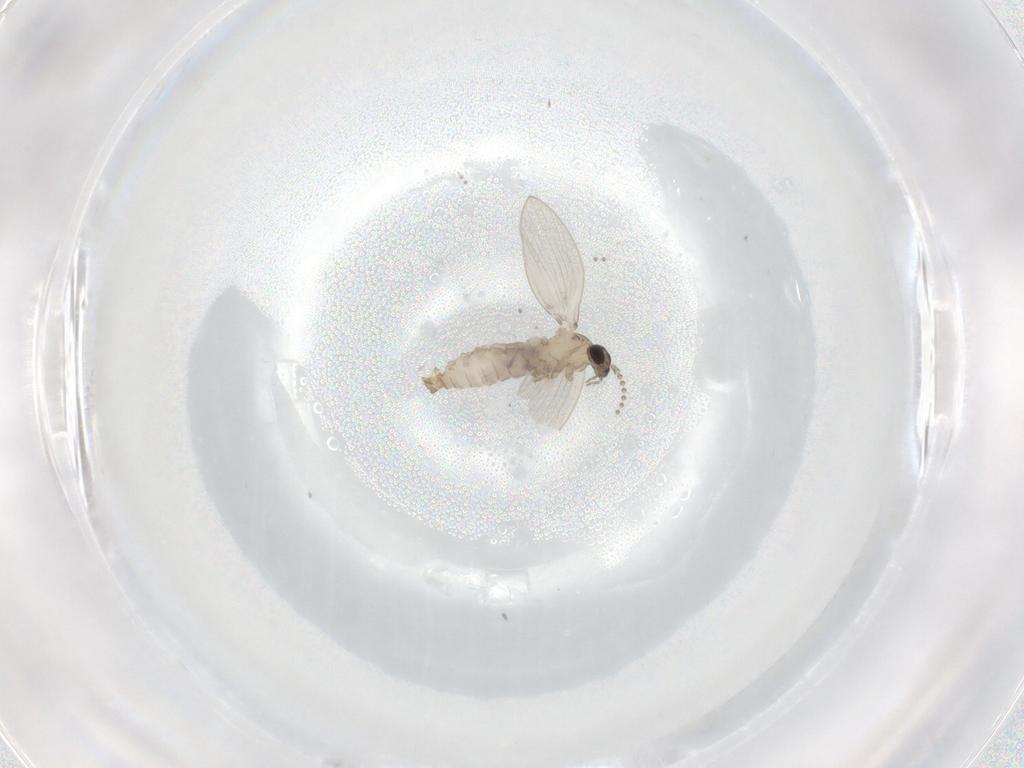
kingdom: Animalia
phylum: Arthropoda
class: Insecta
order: Diptera
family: Psychodidae
